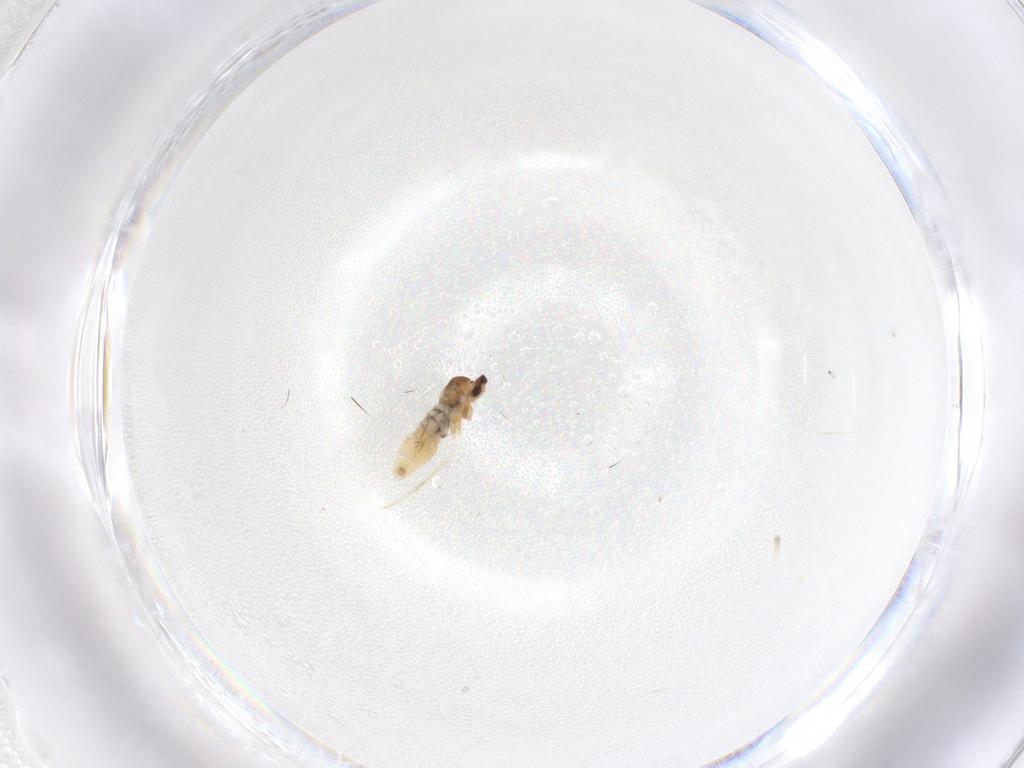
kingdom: Animalia
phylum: Arthropoda
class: Insecta
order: Diptera
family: Cecidomyiidae
